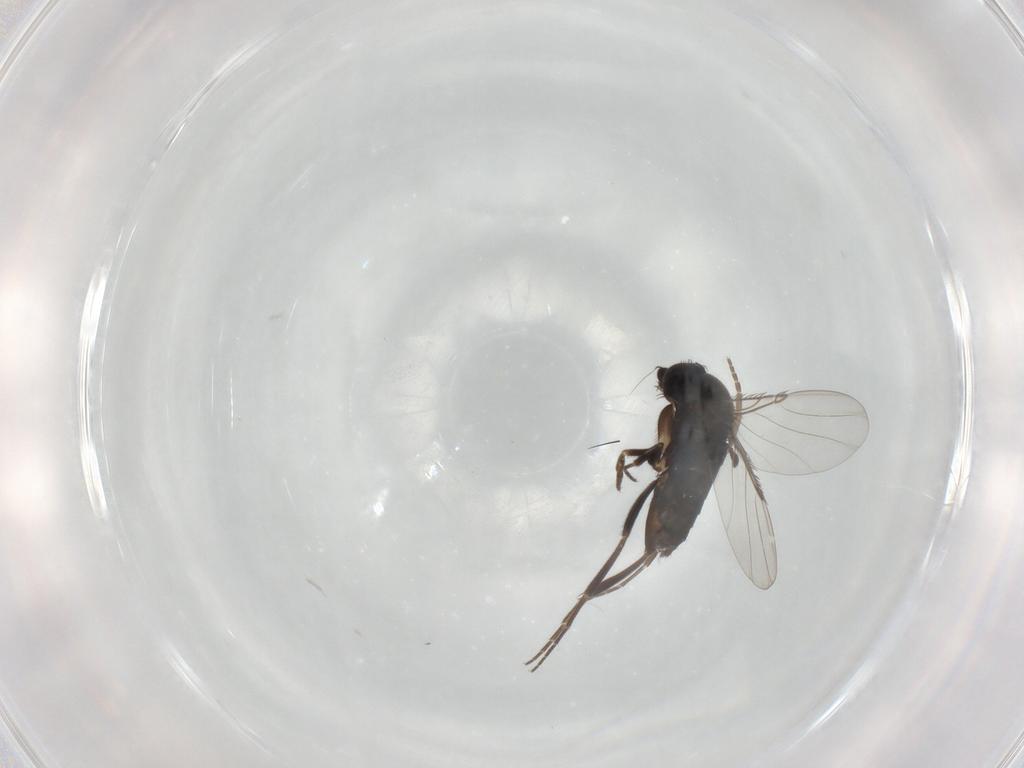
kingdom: Animalia
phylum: Arthropoda
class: Insecta
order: Diptera
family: Phoridae
